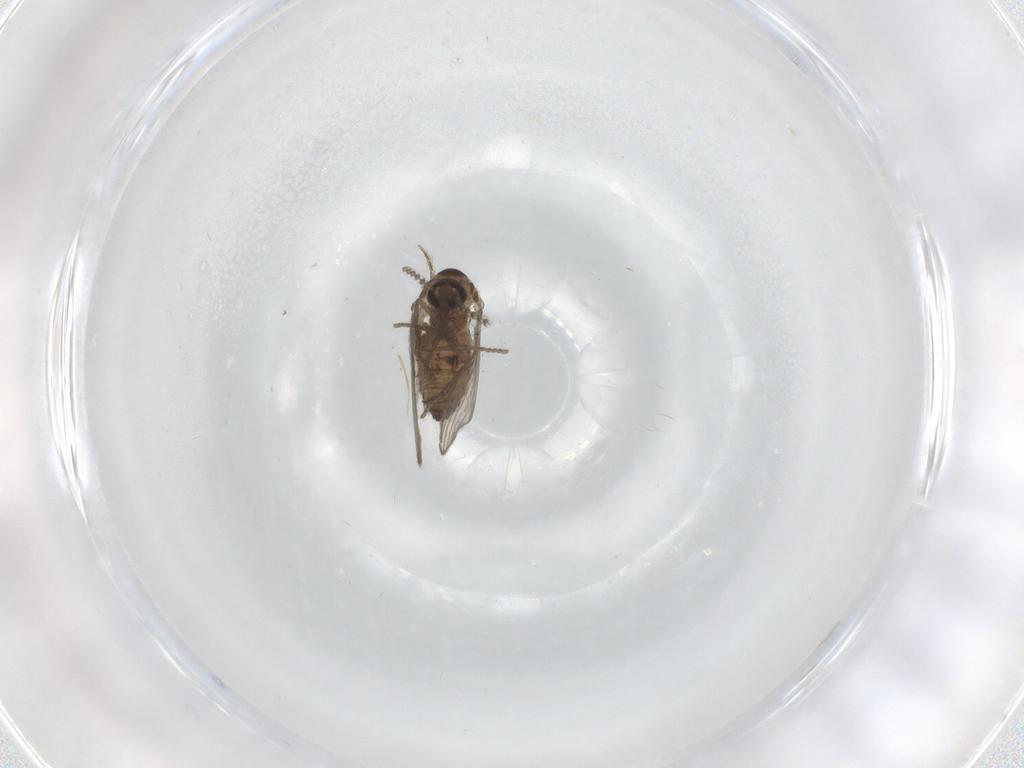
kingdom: Animalia
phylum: Arthropoda
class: Insecta
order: Diptera
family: Psychodidae
